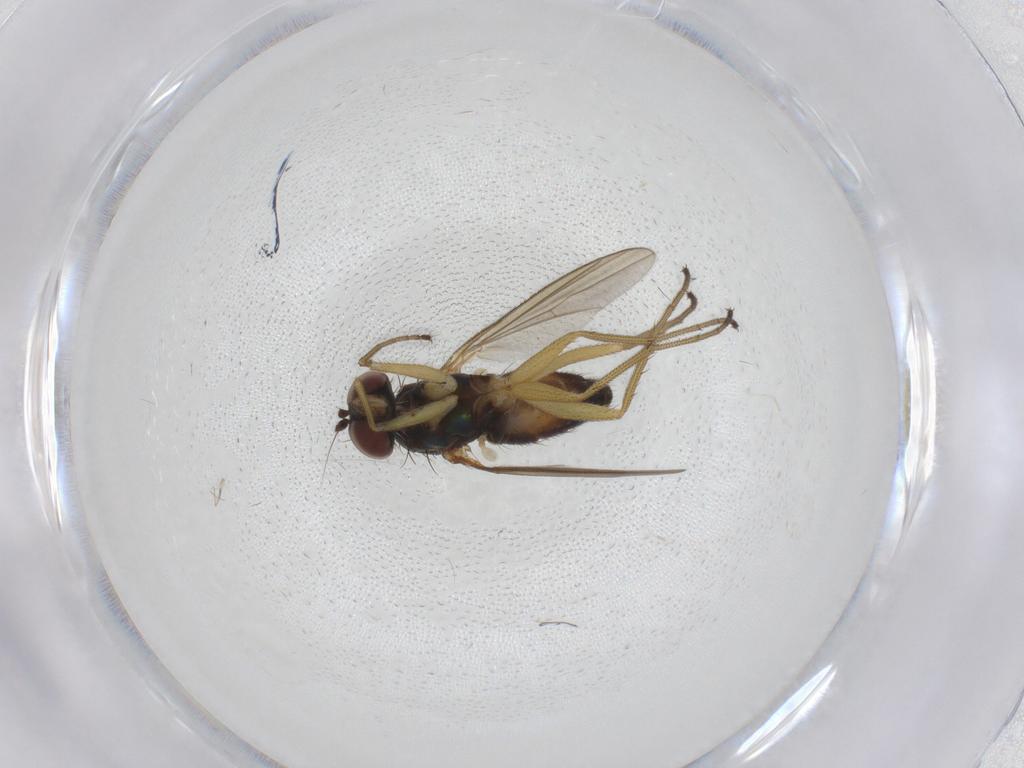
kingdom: Animalia
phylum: Arthropoda
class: Insecta
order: Diptera
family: Dolichopodidae
